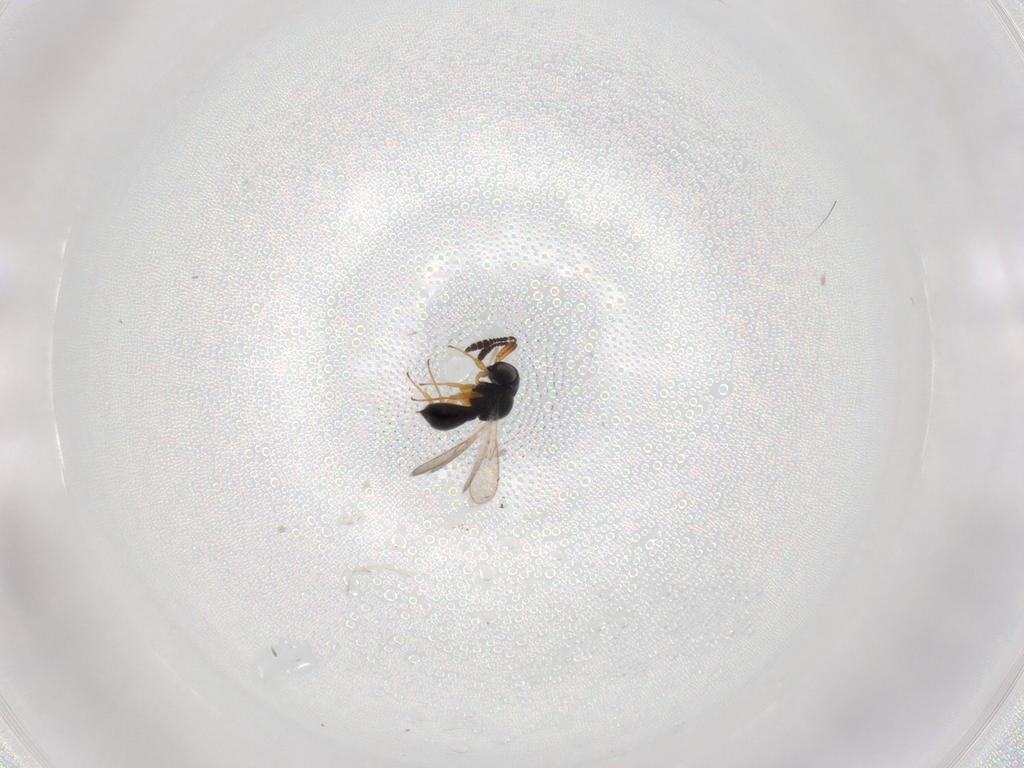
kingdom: Animalia
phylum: Arthropoda
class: Insecta
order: Hymenoptera
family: Scelionidae
